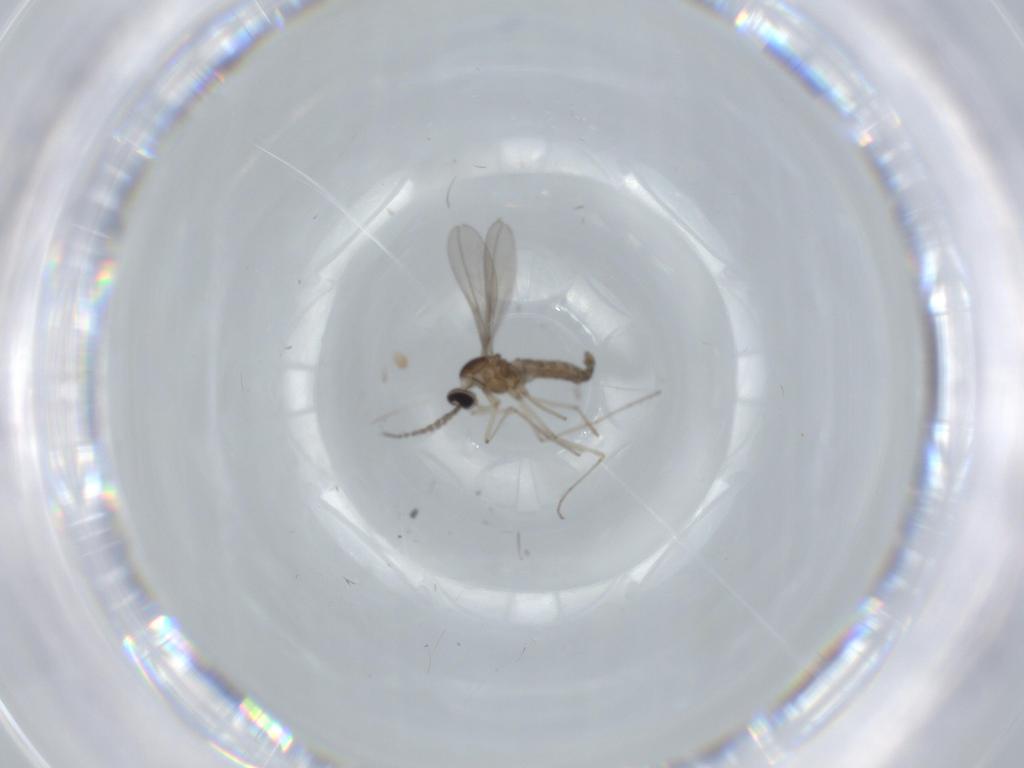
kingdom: Animalia
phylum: Arthropoda
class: Insecta
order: Diptera
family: Cecidomyiidae
